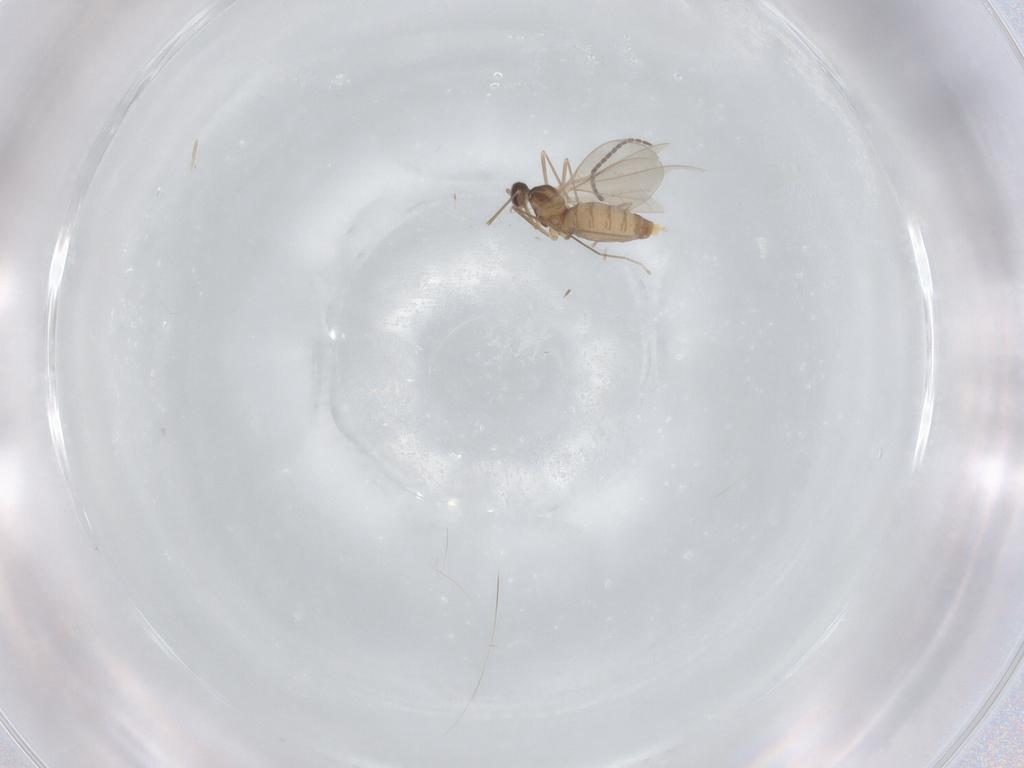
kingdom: Animalia
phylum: Arthropoda
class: Insecta
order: Diptera
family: Cecidomyiidae
